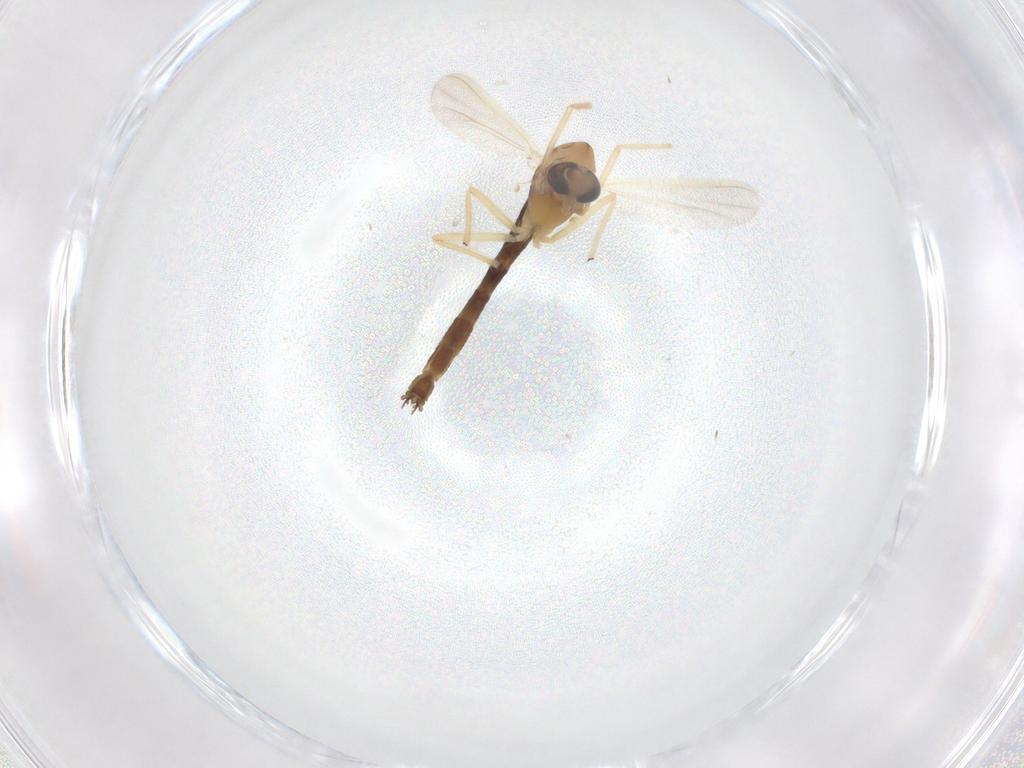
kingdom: Animalia
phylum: Arthropoda
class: Insecta
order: Diptera
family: Chironomidae
